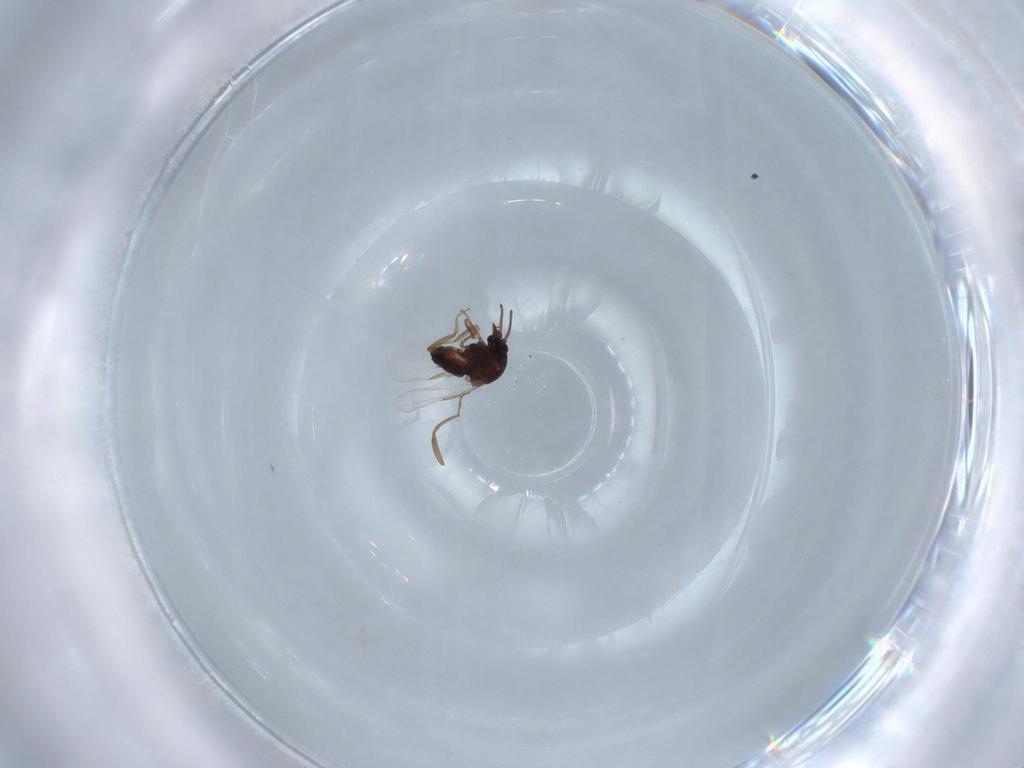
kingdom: Animalia
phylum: Arthropoda
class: Insecta
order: Diptera
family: Ceratopogonidae
